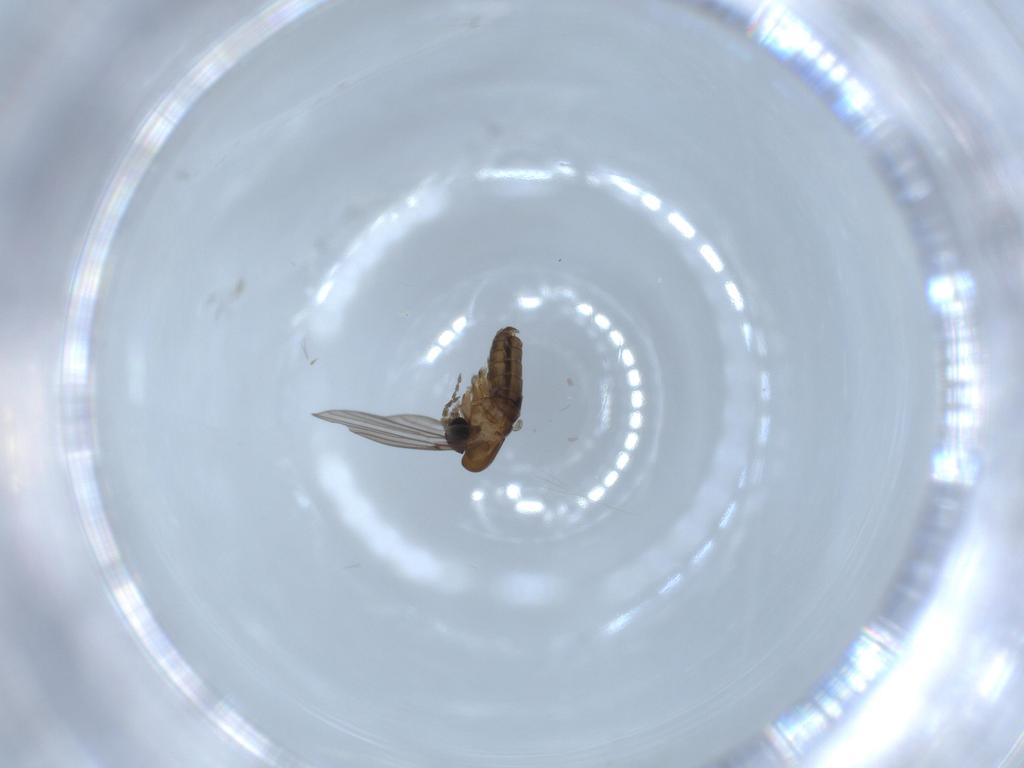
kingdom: Animalia
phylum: Arthropoda
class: Insecta
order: Diptera
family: Psychodidae
